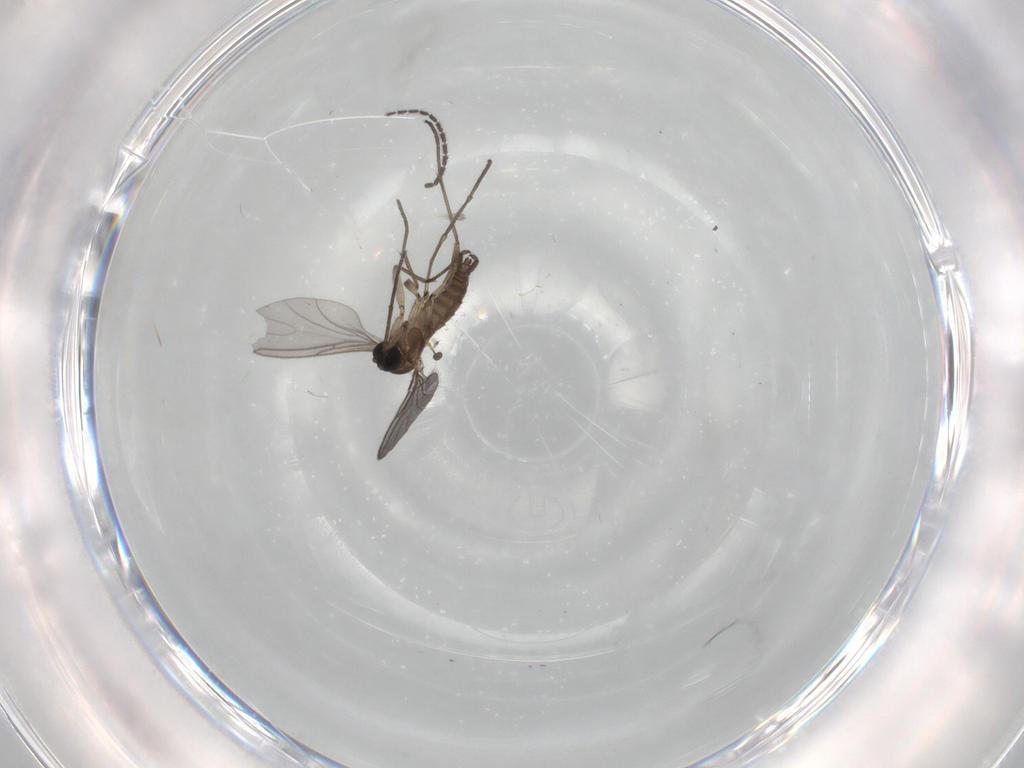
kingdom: Animalia
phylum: Arthropoda
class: Insecta
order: Diptera
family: Sciaridae
